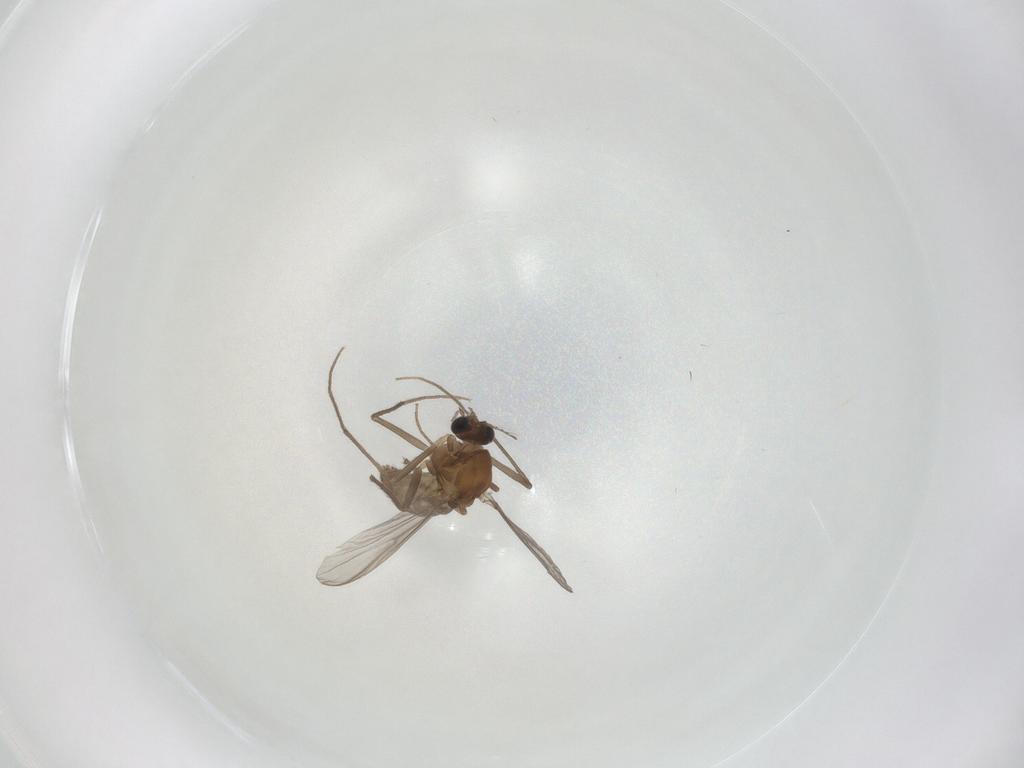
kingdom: Animalia
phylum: Arthropoda
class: Insecta
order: Diptera
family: Chironomidae
